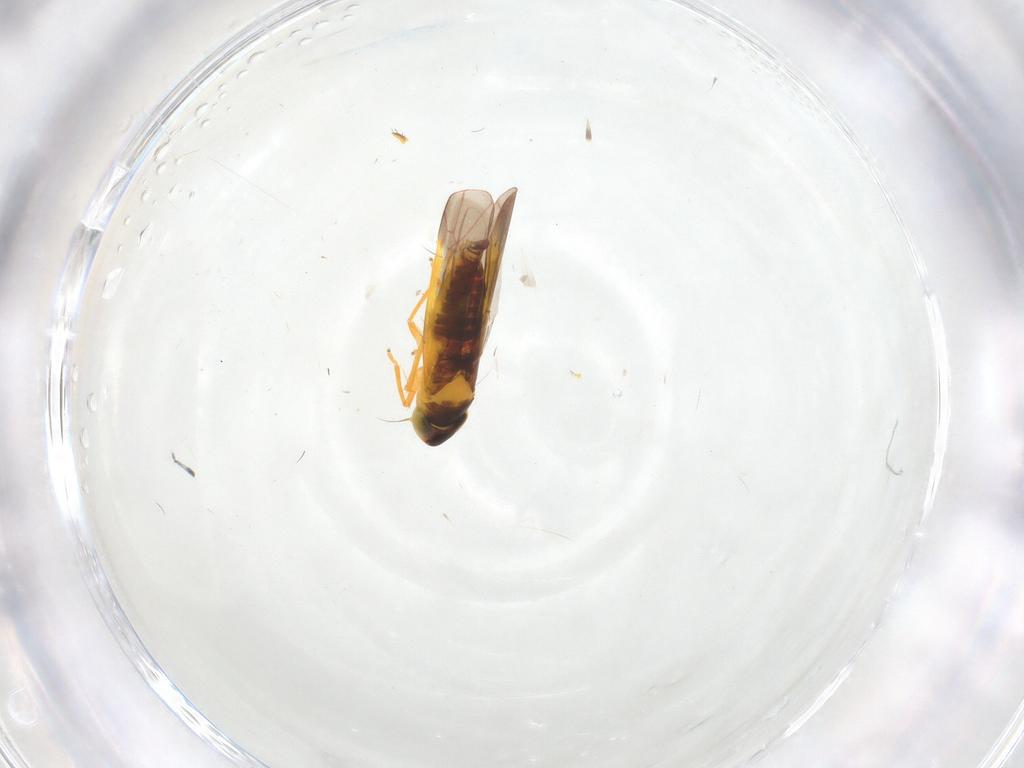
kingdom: Animalia
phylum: Arthropoda
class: Insecta
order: Hemiptera
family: Cicadellidae
